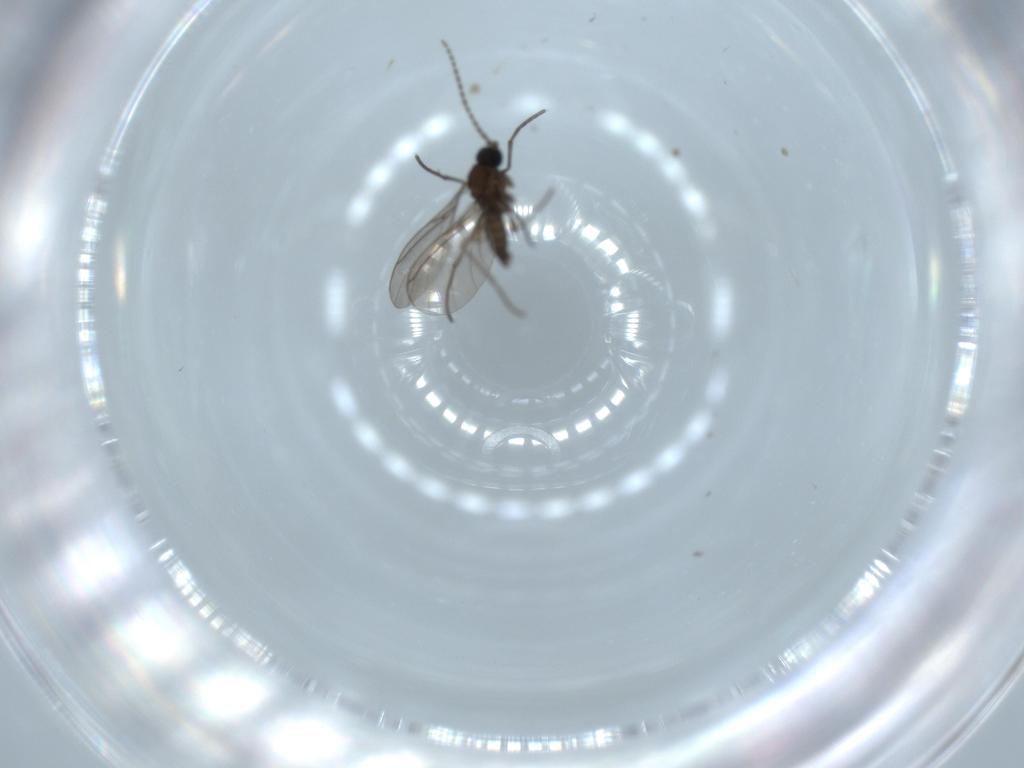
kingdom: Animalia
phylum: Arthropoda
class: Insecta
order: Diptera
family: Sciaridae
